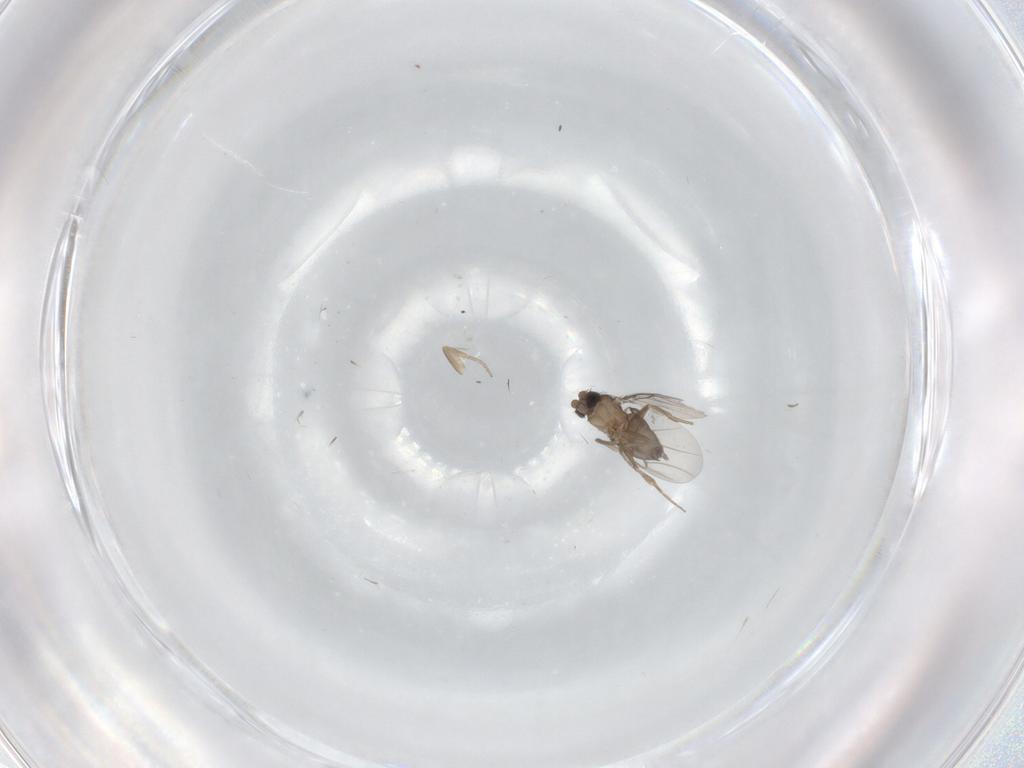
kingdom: Animalia
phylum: Arthropoda
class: Insecta
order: Diptera
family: Phoridae
